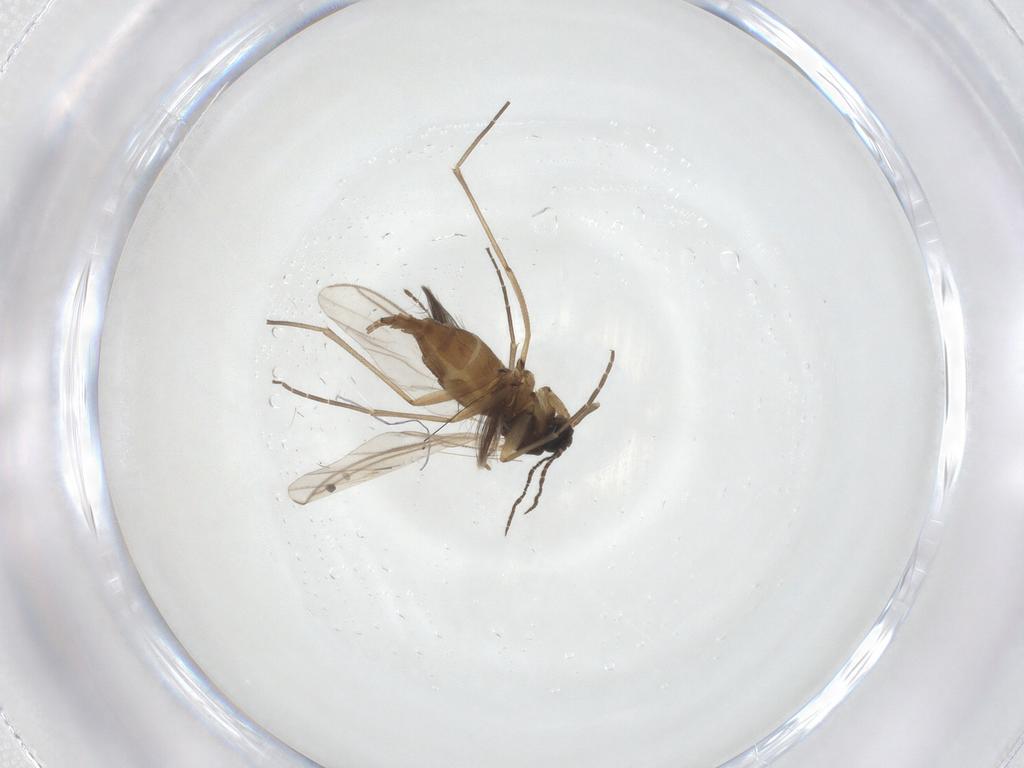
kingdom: Animalia
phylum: Arthropoda
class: Insecta
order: Diptera
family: Sciaridae
